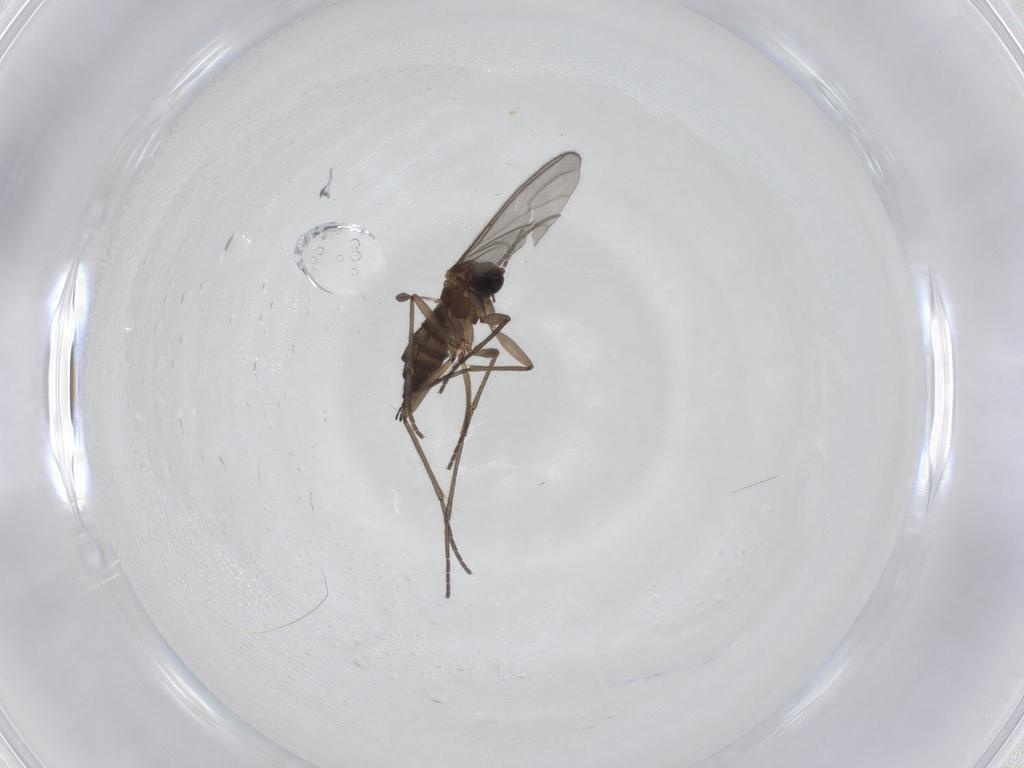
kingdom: Animalia
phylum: Arthropoda
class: Insecta
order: Diptera
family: Sciaridae
